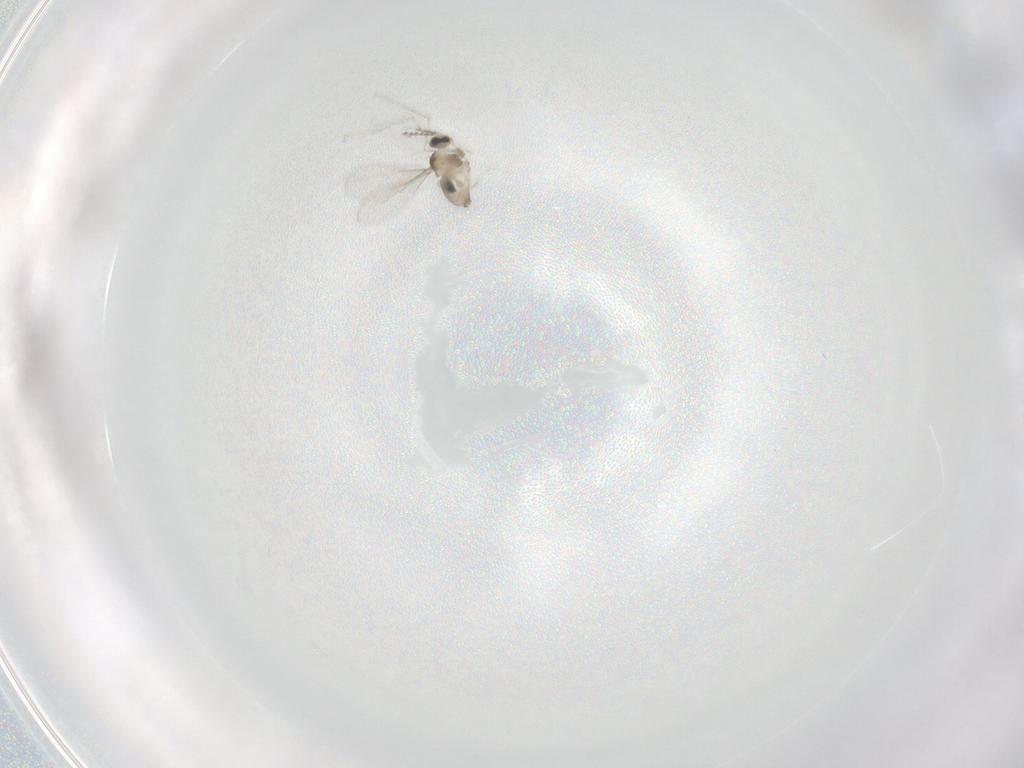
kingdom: Animalia
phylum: Arthropoda
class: Insecta
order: Diptera
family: Cecidomyiidae
